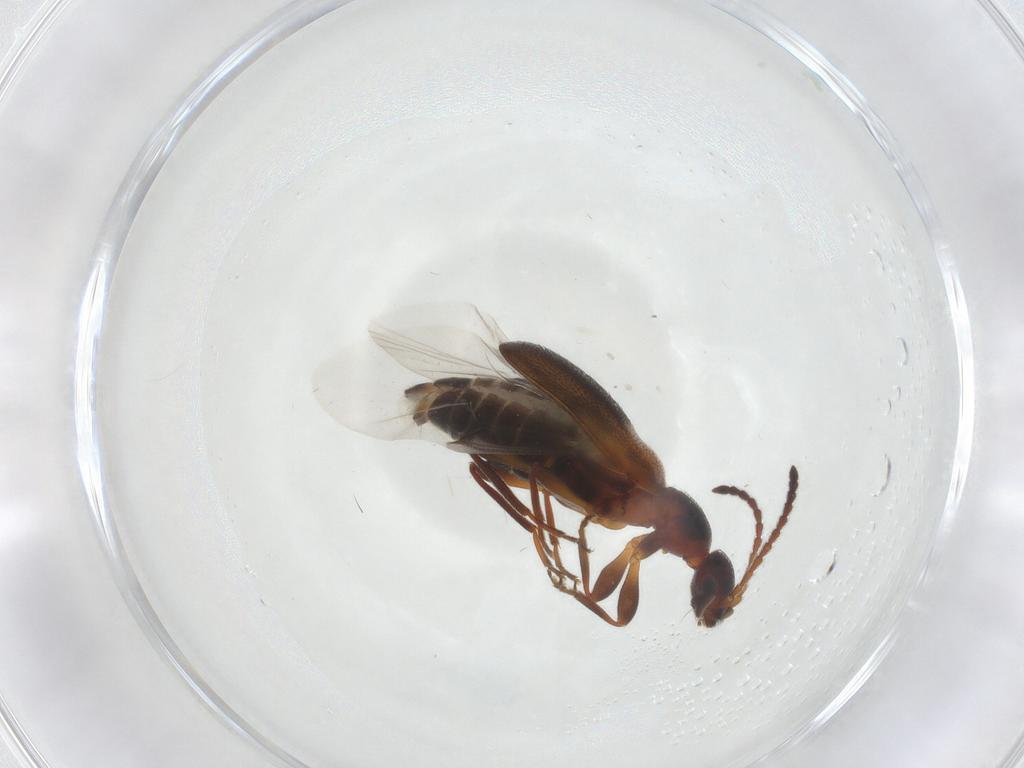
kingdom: Animalia
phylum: Arthropoda
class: Insecta
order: Coleoptera
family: Anthicidae
